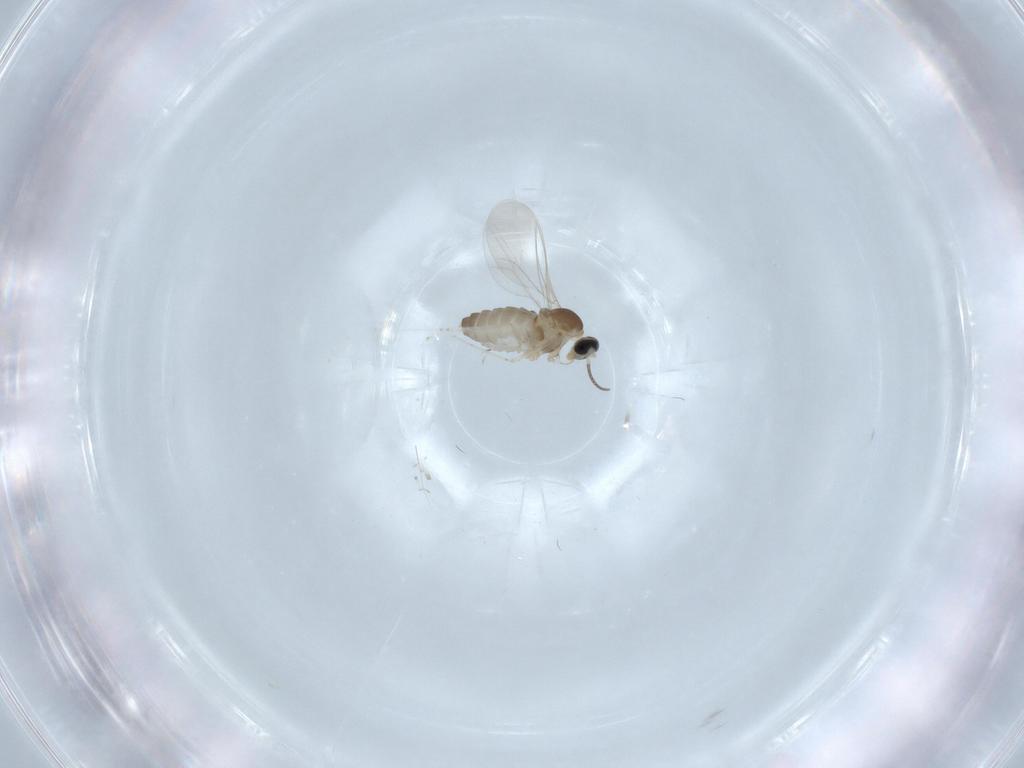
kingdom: Animalia
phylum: Arthropoda
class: Insecta
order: Diptera
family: Cecidomyiidae
